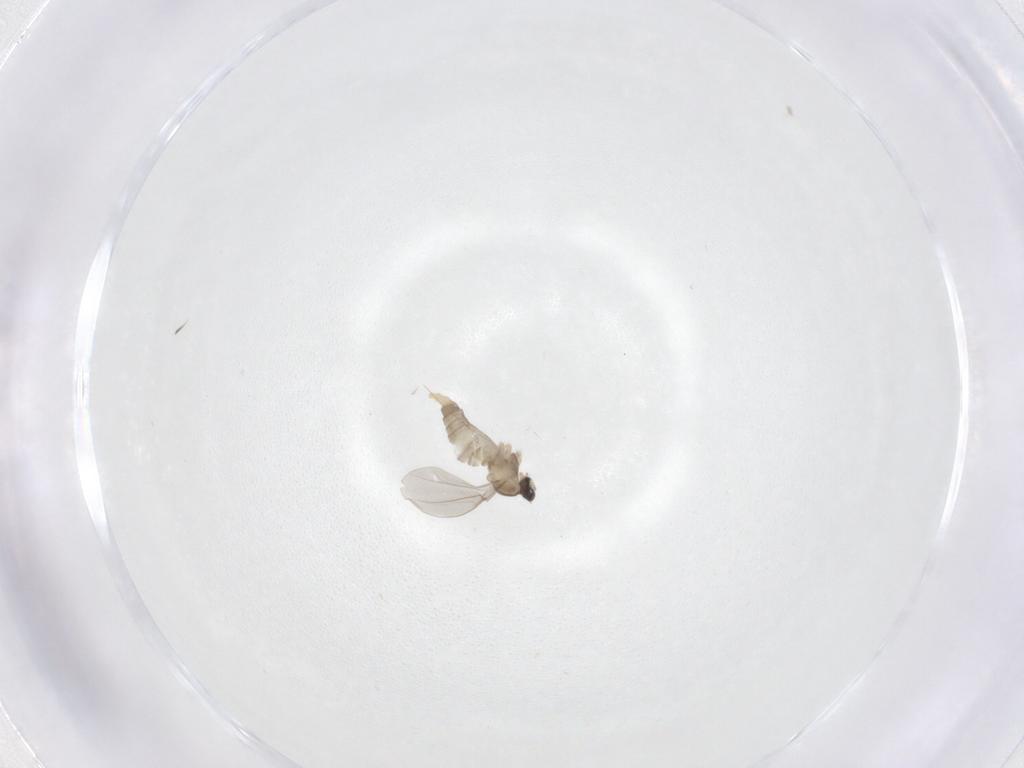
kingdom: Animalia
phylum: Arthropoda
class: Insecta
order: Diptera
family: Cecidomyiidae
